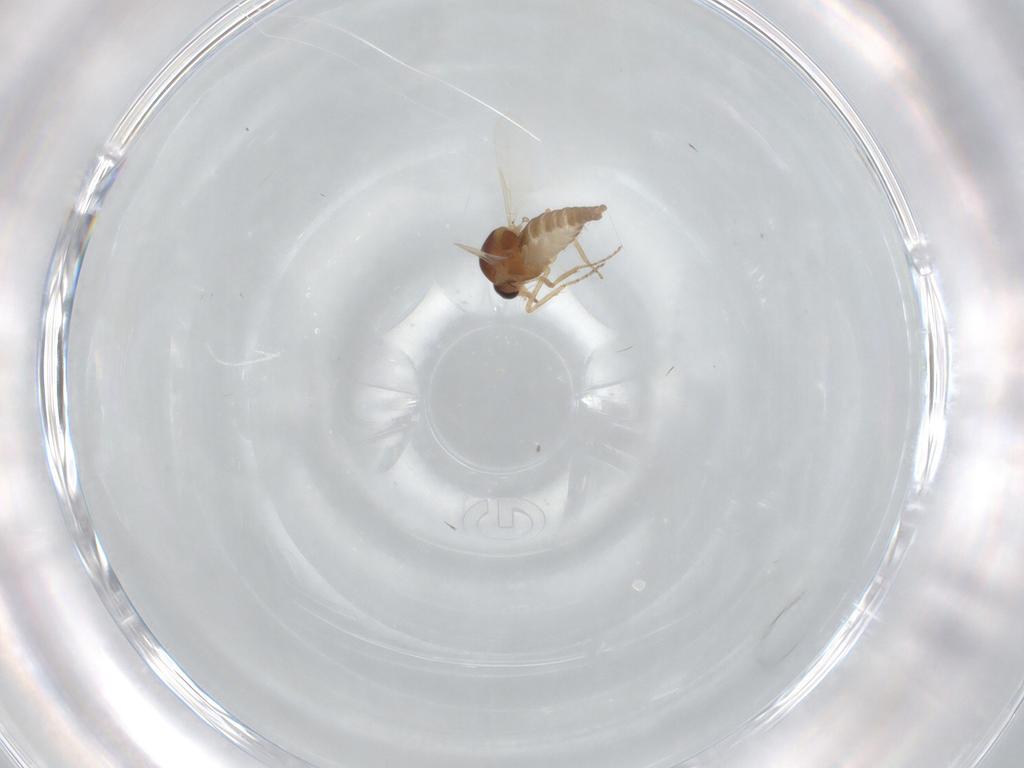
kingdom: Animalia
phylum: Arthropoda
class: Insecta
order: Diptera
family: Ceratopogonidae
